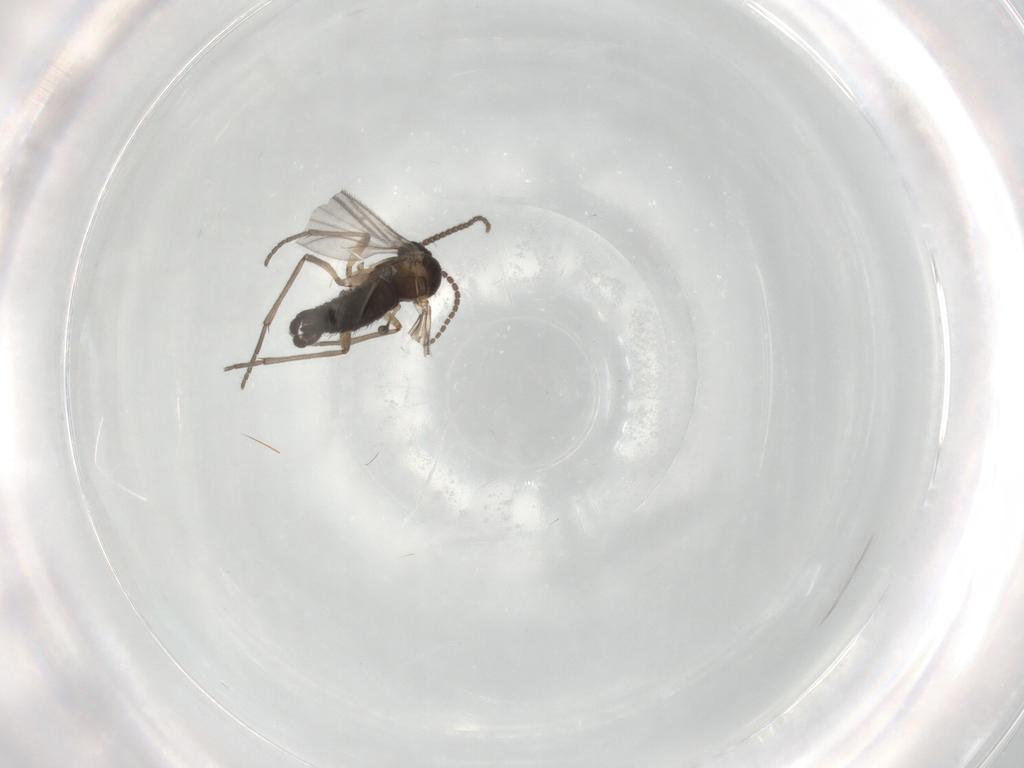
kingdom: Animalia
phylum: Arthropoda
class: Insecta
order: Diptera
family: Sciaridae
